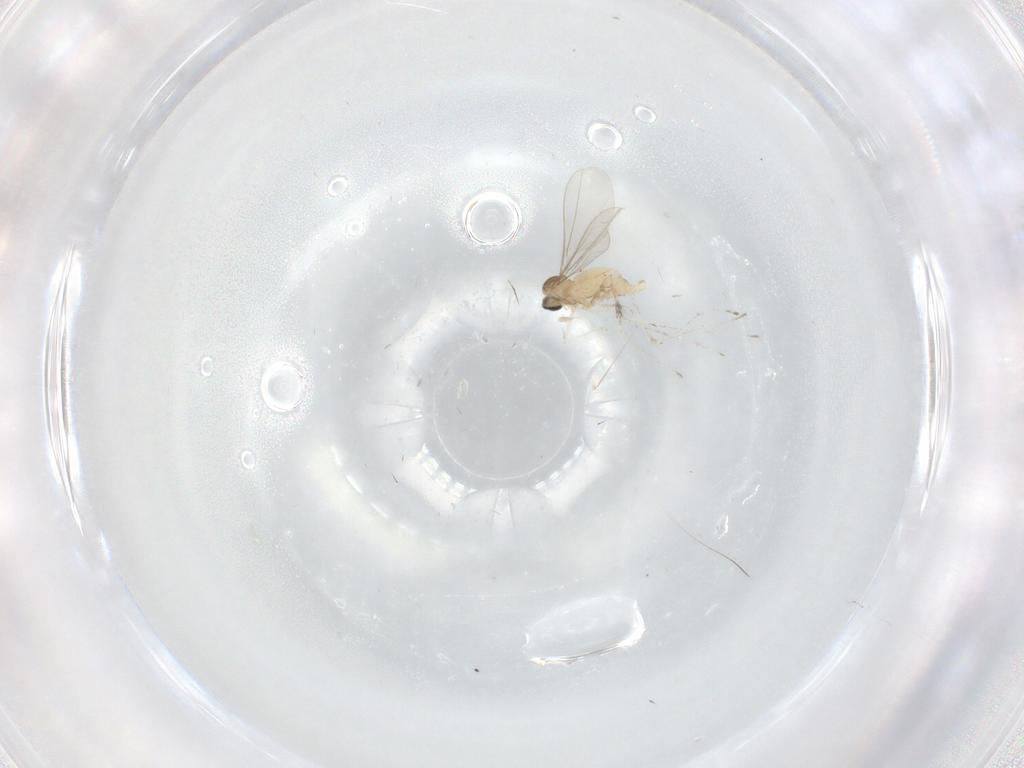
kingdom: Animalia
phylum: Arthropoda
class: Insecta
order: Diptera
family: Cecidomyiidae
